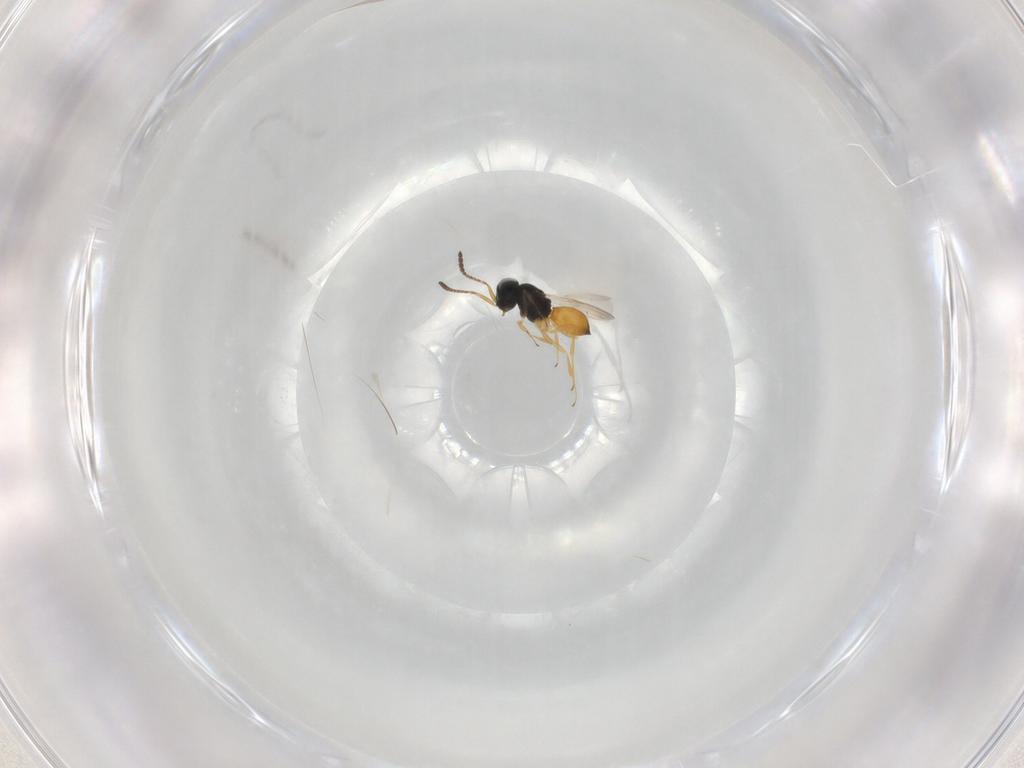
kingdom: Animalia
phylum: Arthropoda
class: Insecta
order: Hymenoptera
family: Scelionidae
